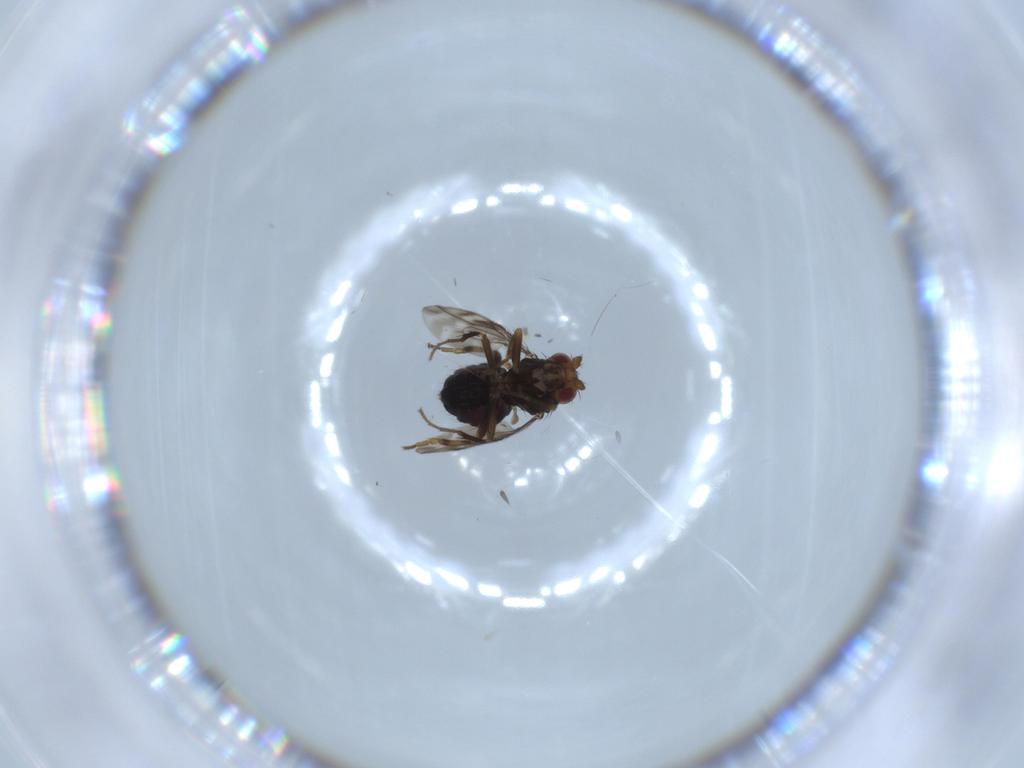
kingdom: Animalia
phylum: Arthropoda
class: Insecta
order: Diptera
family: Sphaeroceridae
